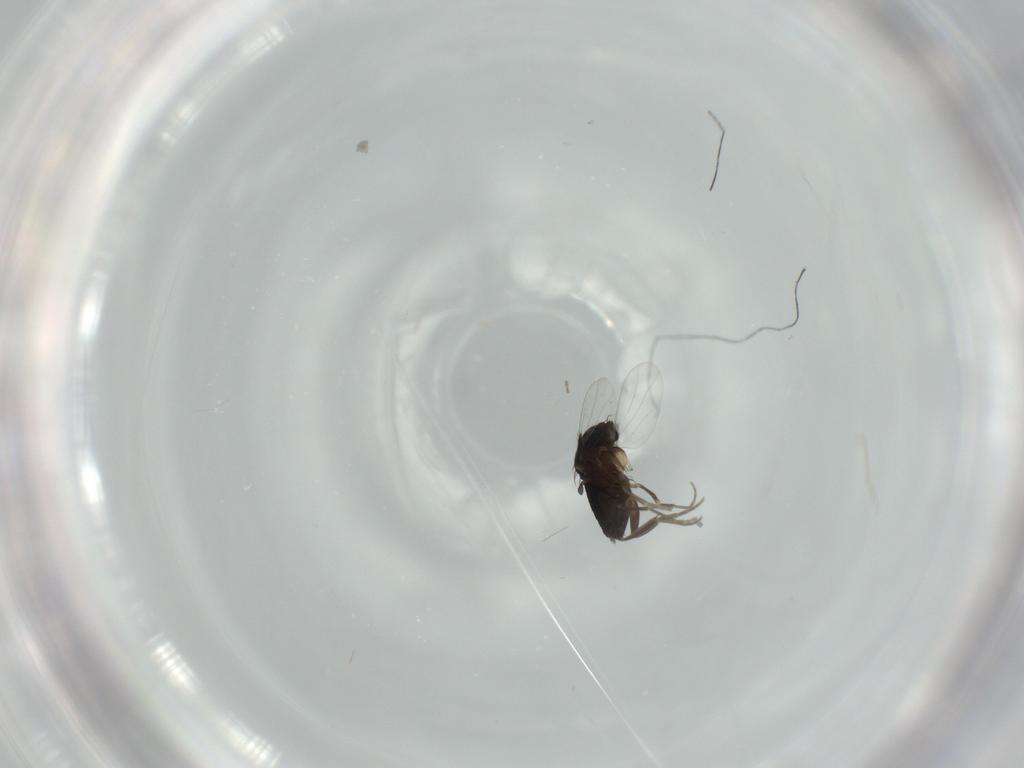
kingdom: Animalia
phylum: Arthropoda
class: Insecta
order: Diptera
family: Phoridae
